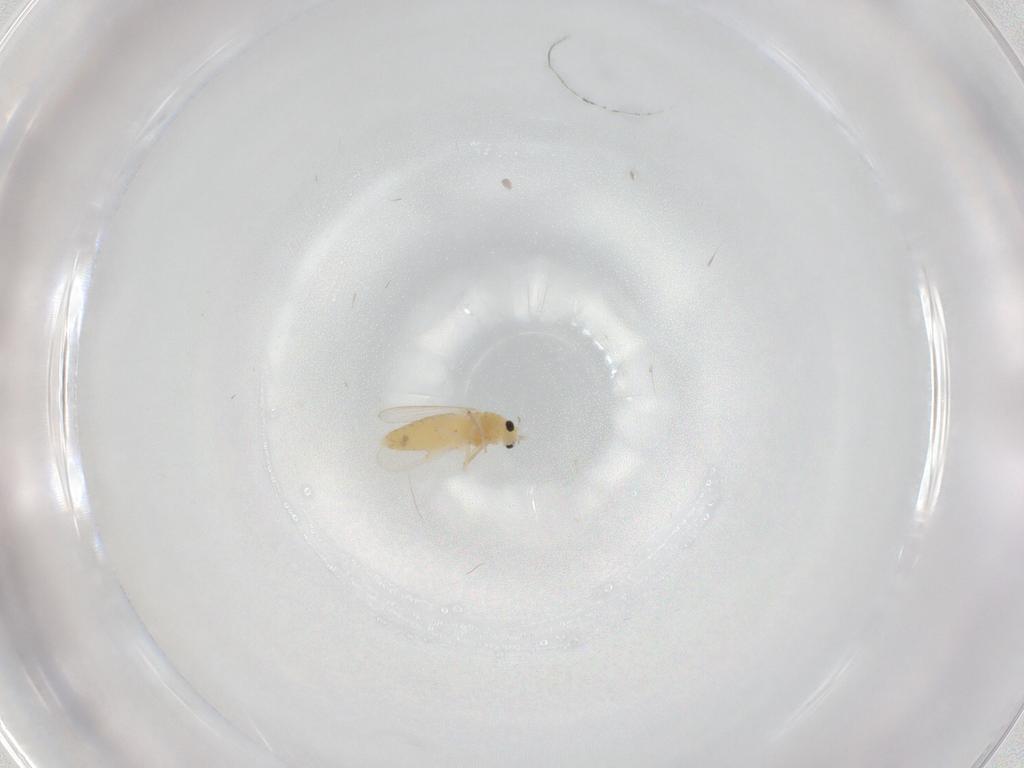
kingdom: Animalia
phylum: Arthropoda
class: Insecta
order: Diptera
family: Chironomidae
